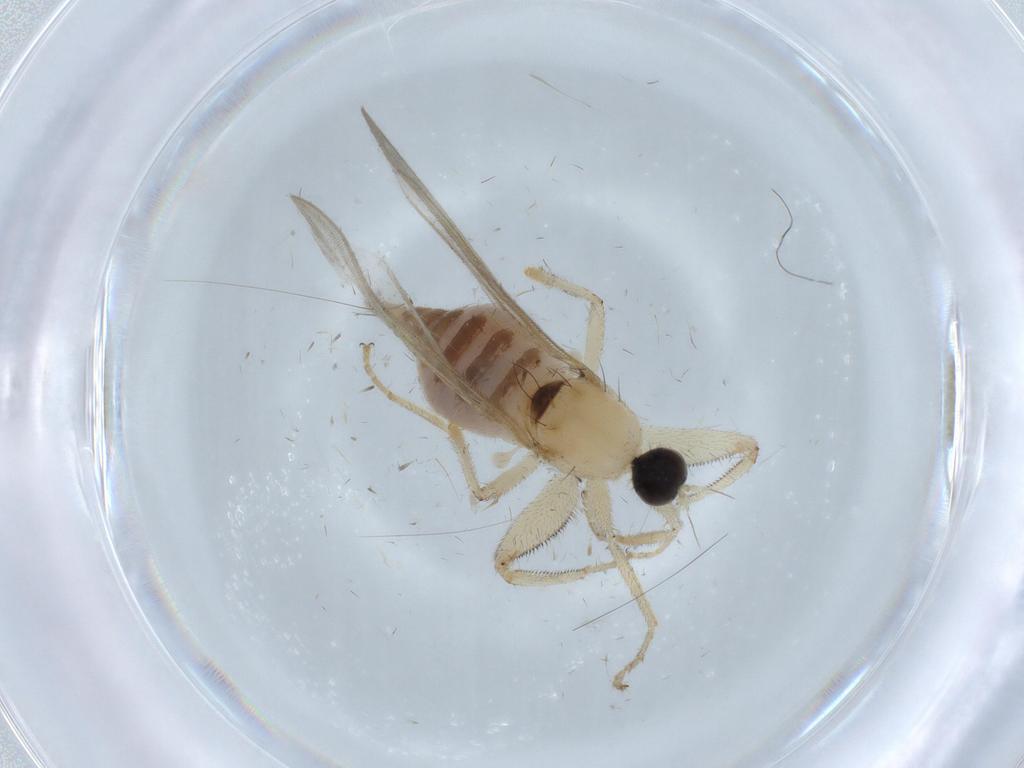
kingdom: Animalia
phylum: Arthropoda
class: Insecta
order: Diptera
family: Hybotidae
